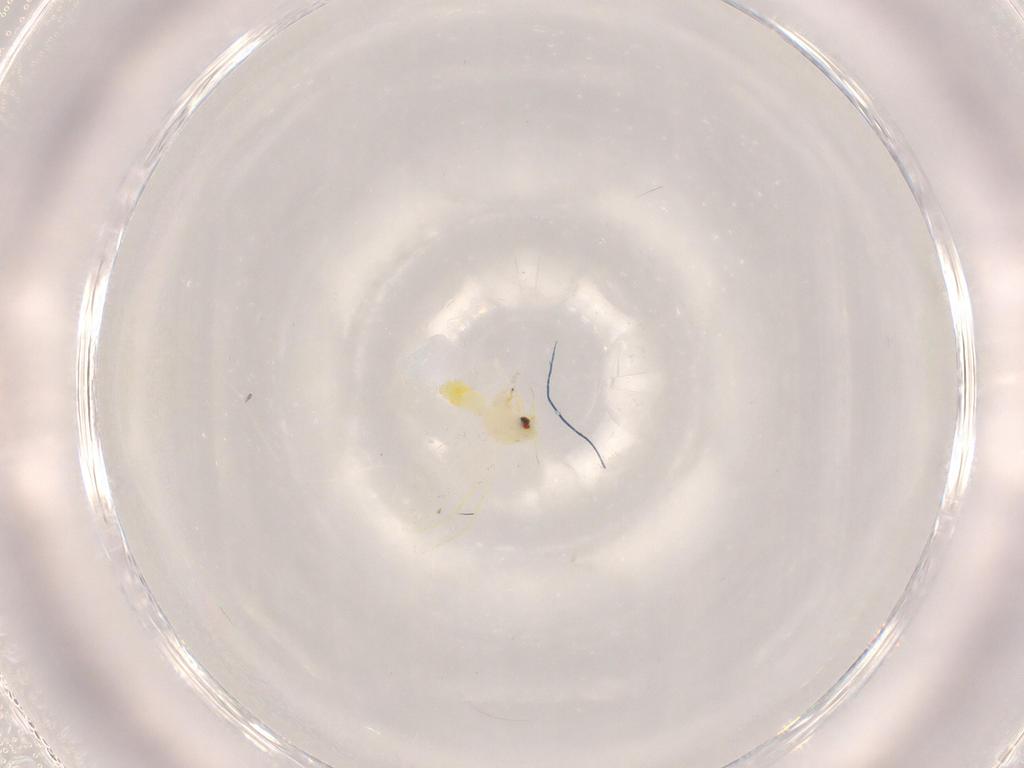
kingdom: Animalia
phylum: Arthropoda
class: Insecta
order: Hemiptera
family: Aleyrodidae
